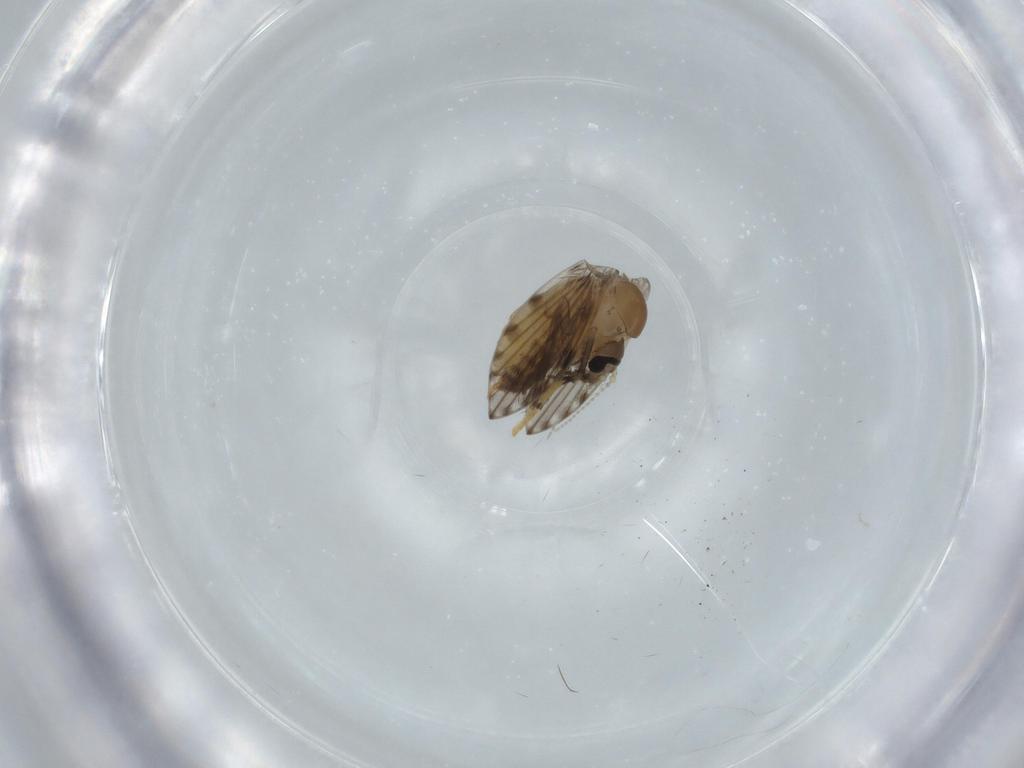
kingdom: Animalia
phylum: Arthropoda
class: Insecta
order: Diptera
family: Psychodidae
